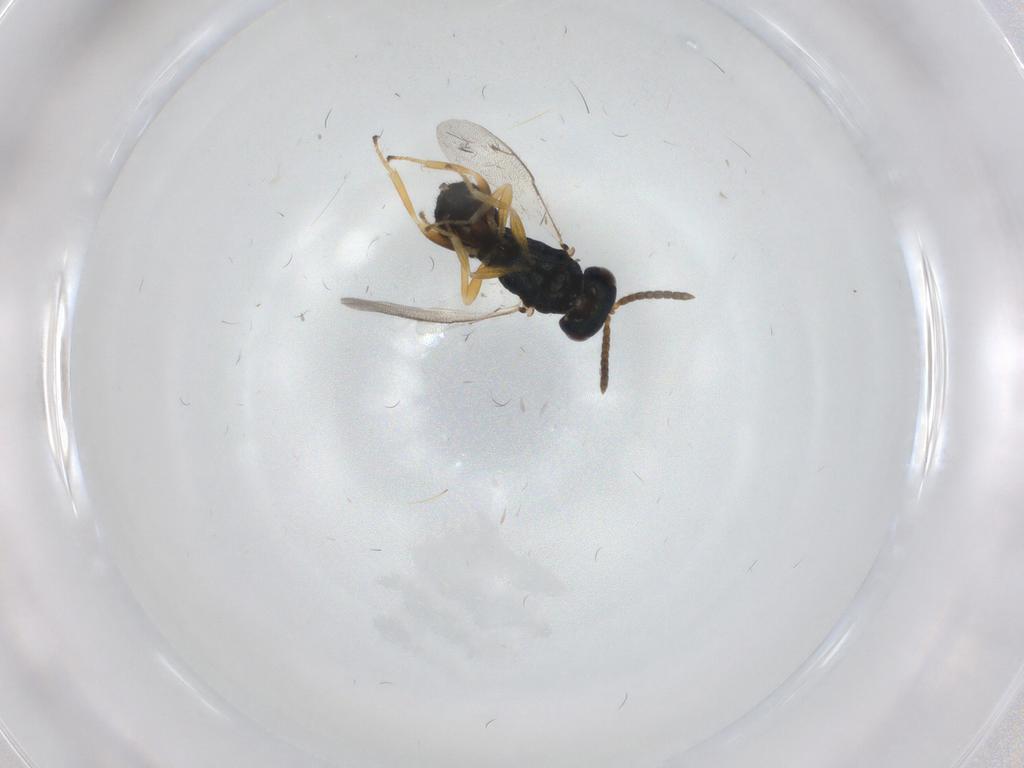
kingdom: Animalia
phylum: Arthropoda
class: Insecta
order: Hymenoptera
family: Pteromalidae
